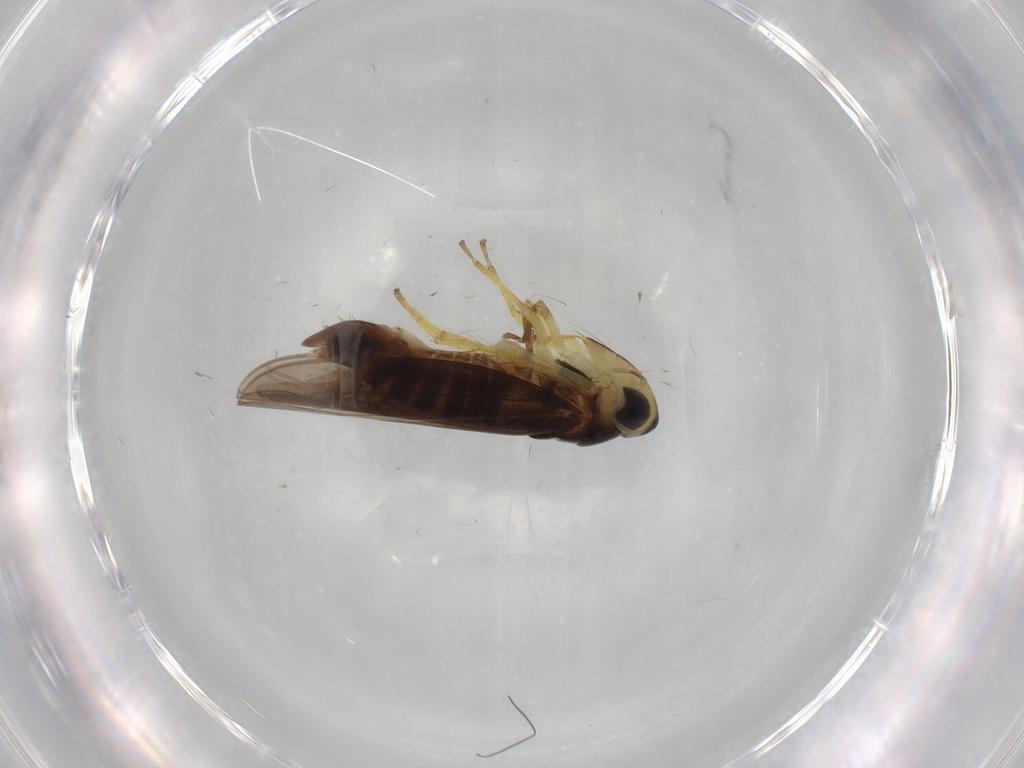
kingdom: Animalia
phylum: Arthropoda
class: Insecta
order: Hemiptera
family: Cicadellidae
